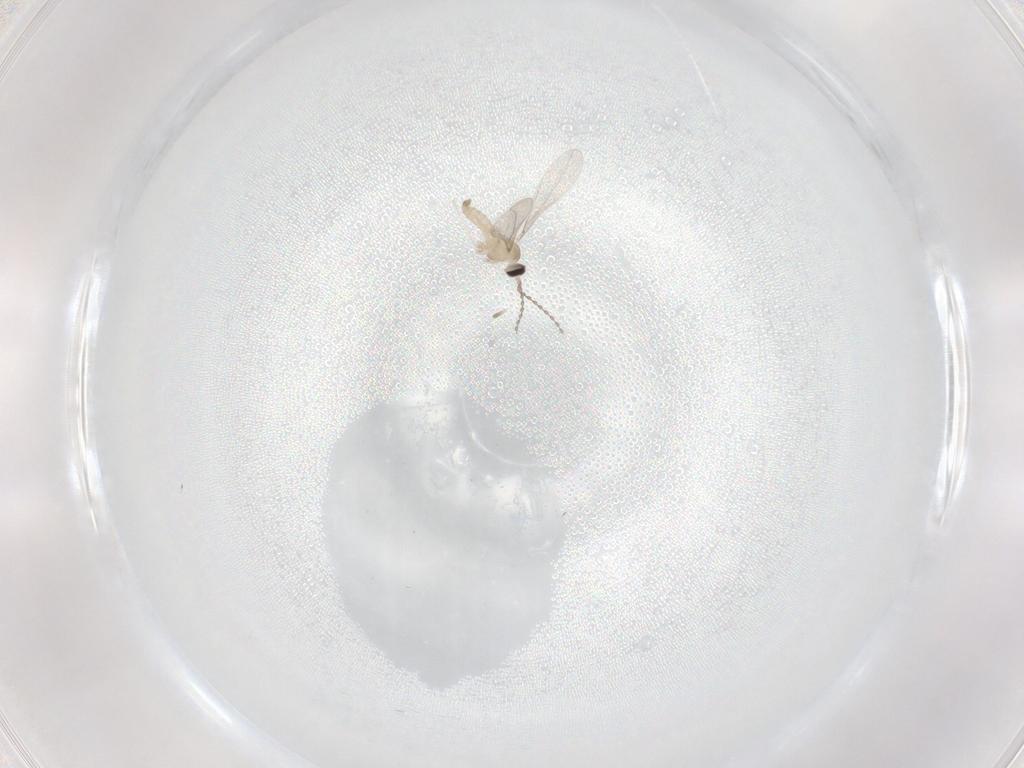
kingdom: Animalia
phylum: Arthropoda
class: Insecta
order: Diptera
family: Cecidomyiidae
